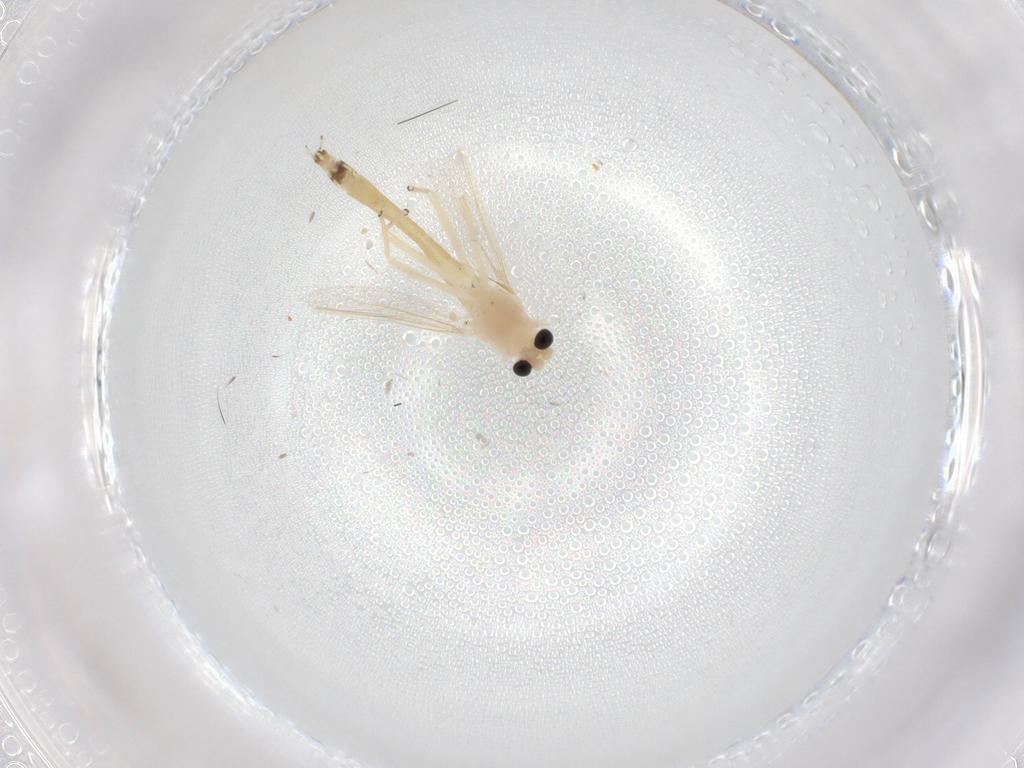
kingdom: Animalia
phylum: Arthropoda
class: Insecta
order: Diptera
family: Chironomidae
